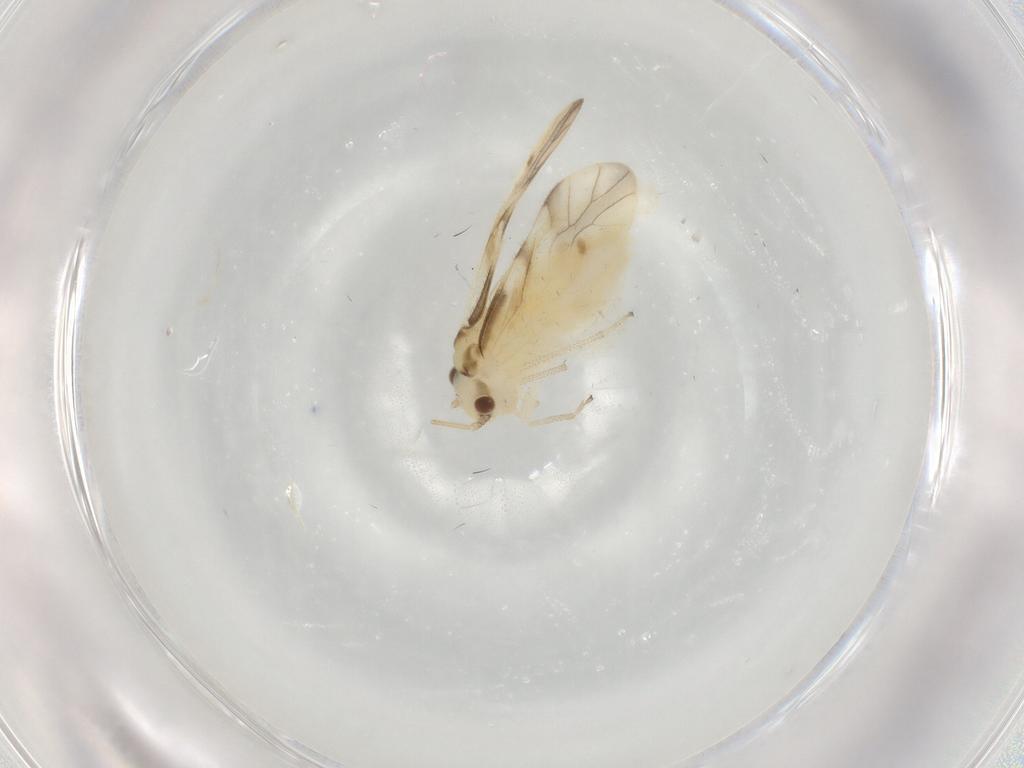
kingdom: Animalia
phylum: Arthropoda
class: Insecta
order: Psocodea
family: Caeciliusidae
